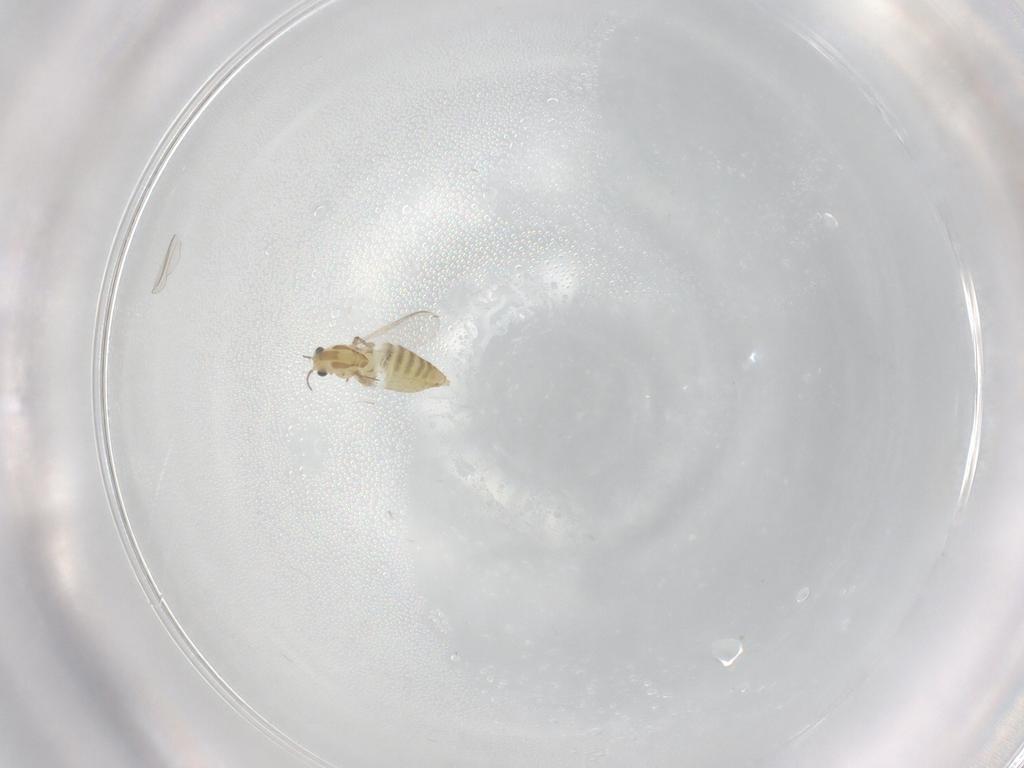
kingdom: Animalia
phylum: Arthropoda
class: Insecta
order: Diptera
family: Chironomidae
